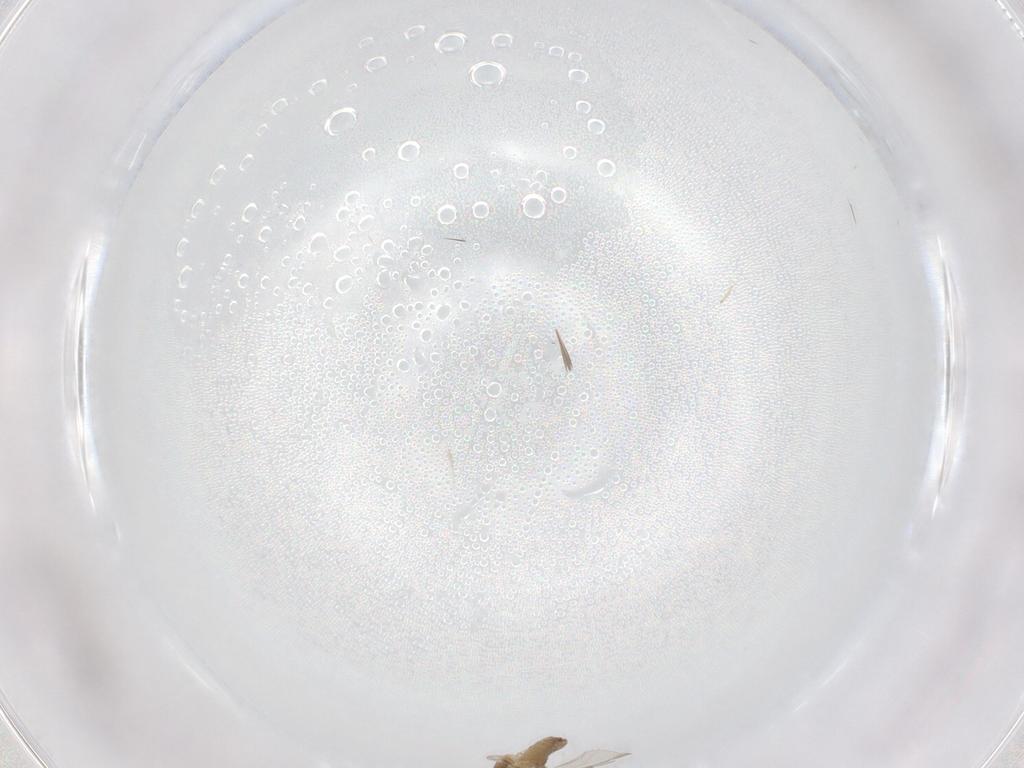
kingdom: Animalia
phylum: Arthropoda
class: Insecta
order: Diptera
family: Chironomidae
